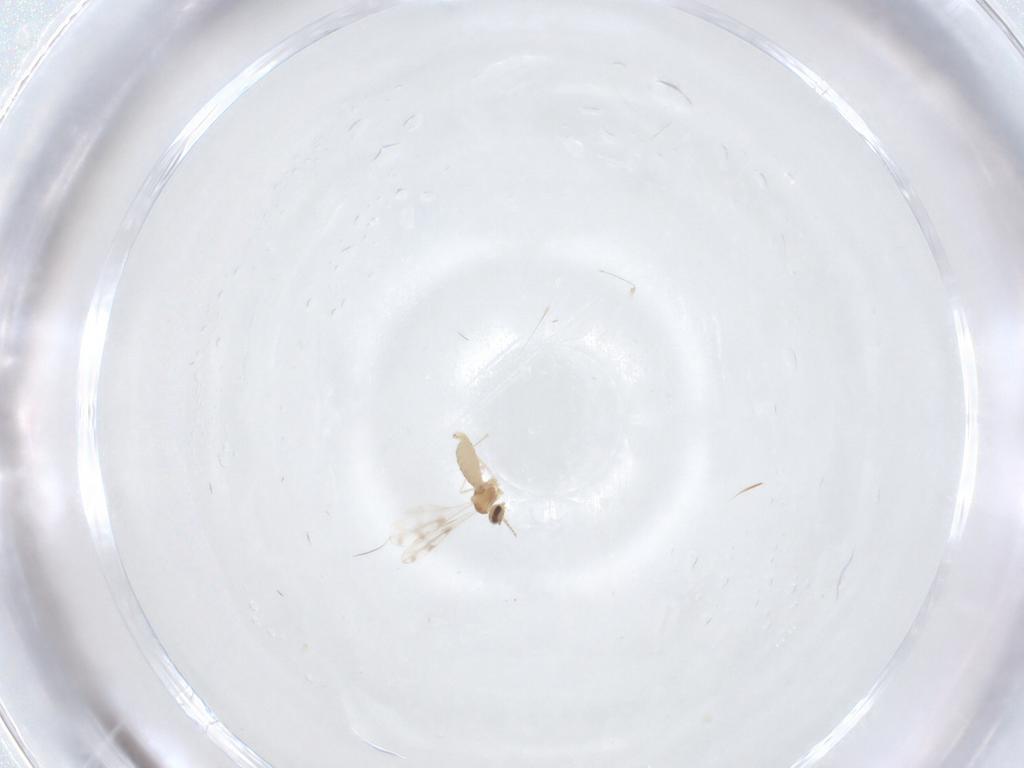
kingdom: Animalia
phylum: Arthropoda
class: Insecta
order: Diptera
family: Cecidomyiidae
